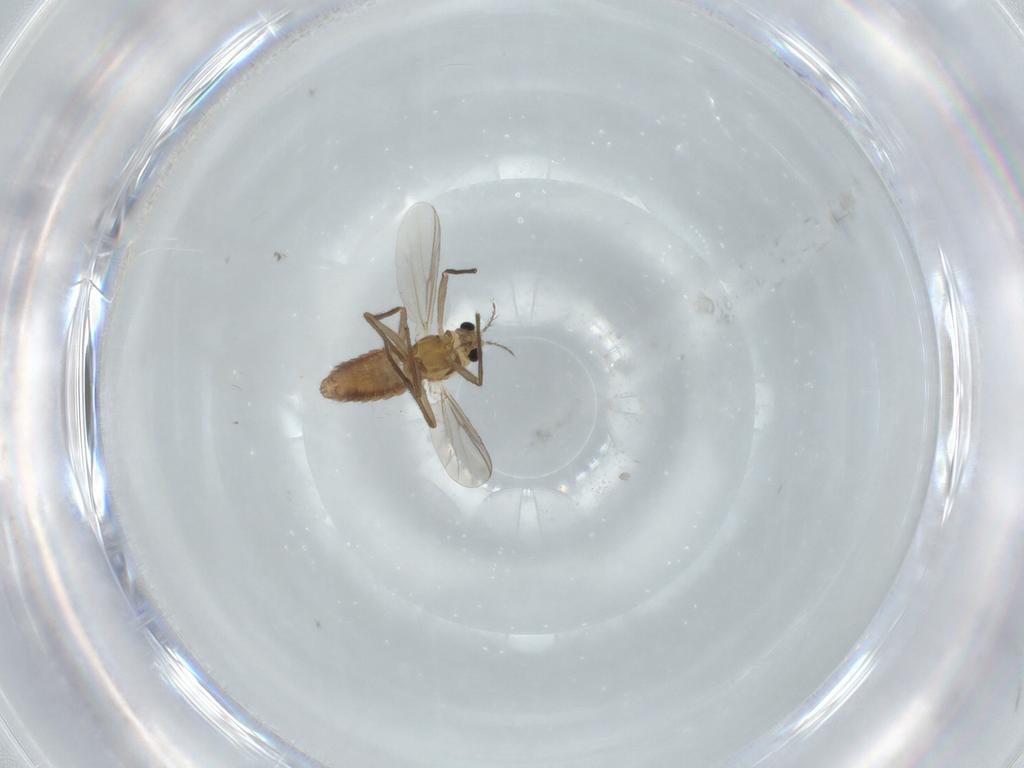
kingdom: Animalia
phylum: Arthropoda
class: Insecta
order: Diptera
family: Chironomidae
